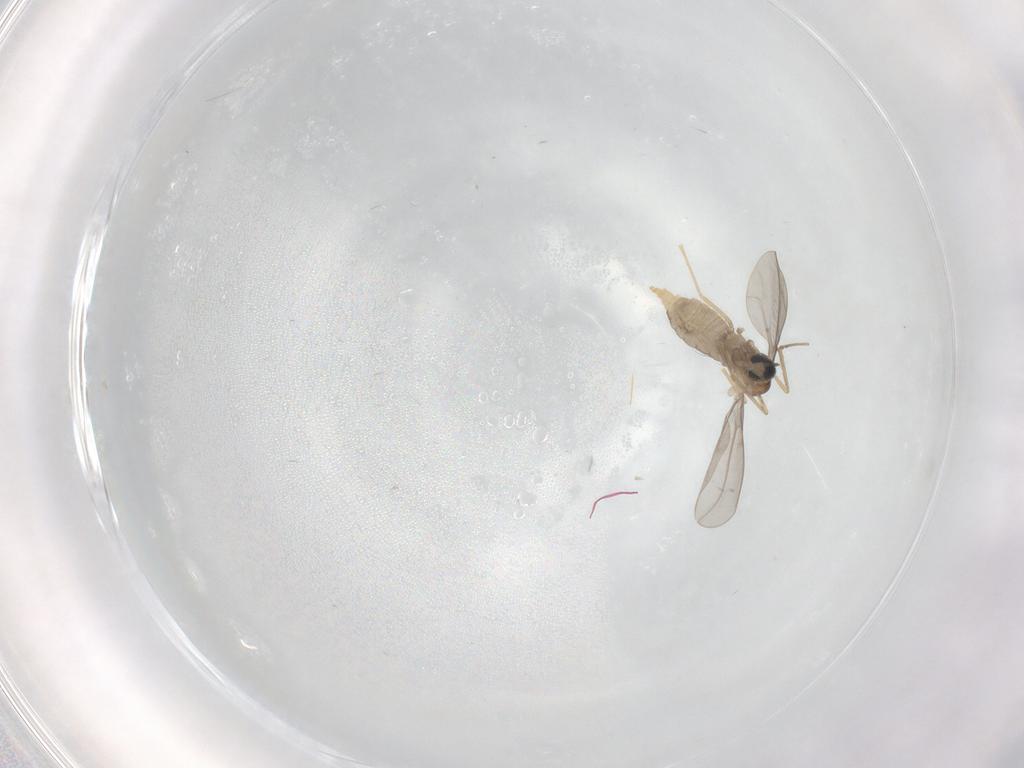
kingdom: Animalia
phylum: Arthropoda
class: Insecta
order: Diptera
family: Cecidomyiidae
